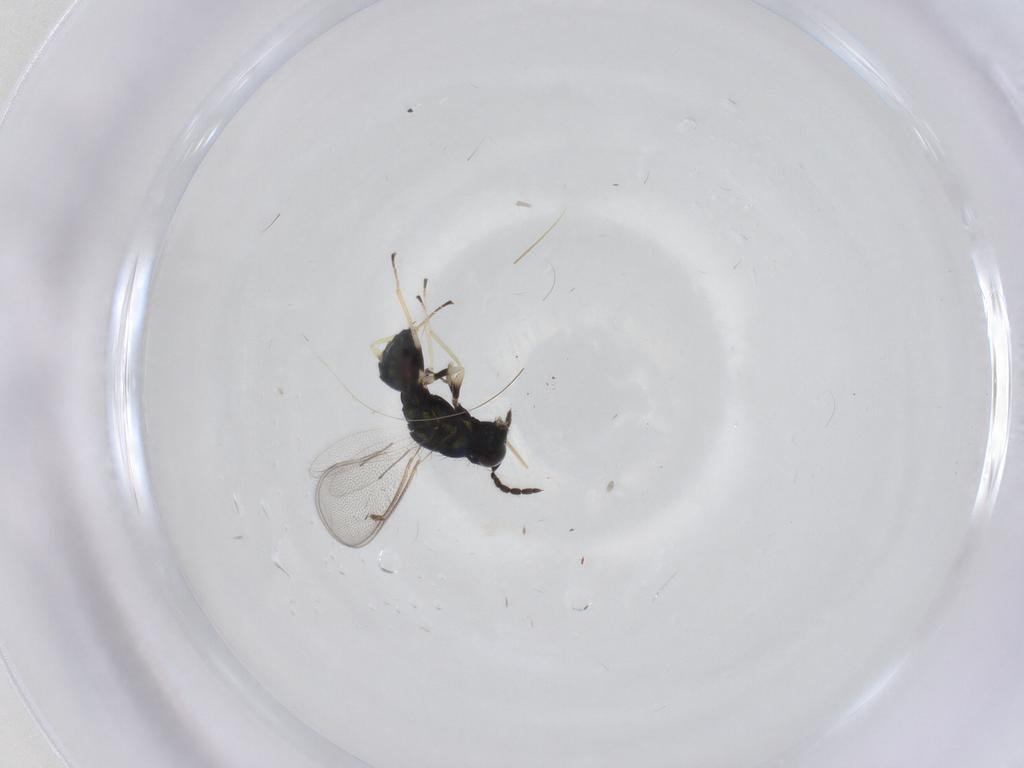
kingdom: Animalia
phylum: Arthropoda
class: Insecta
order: Hymenoptera
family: Eulophidae
